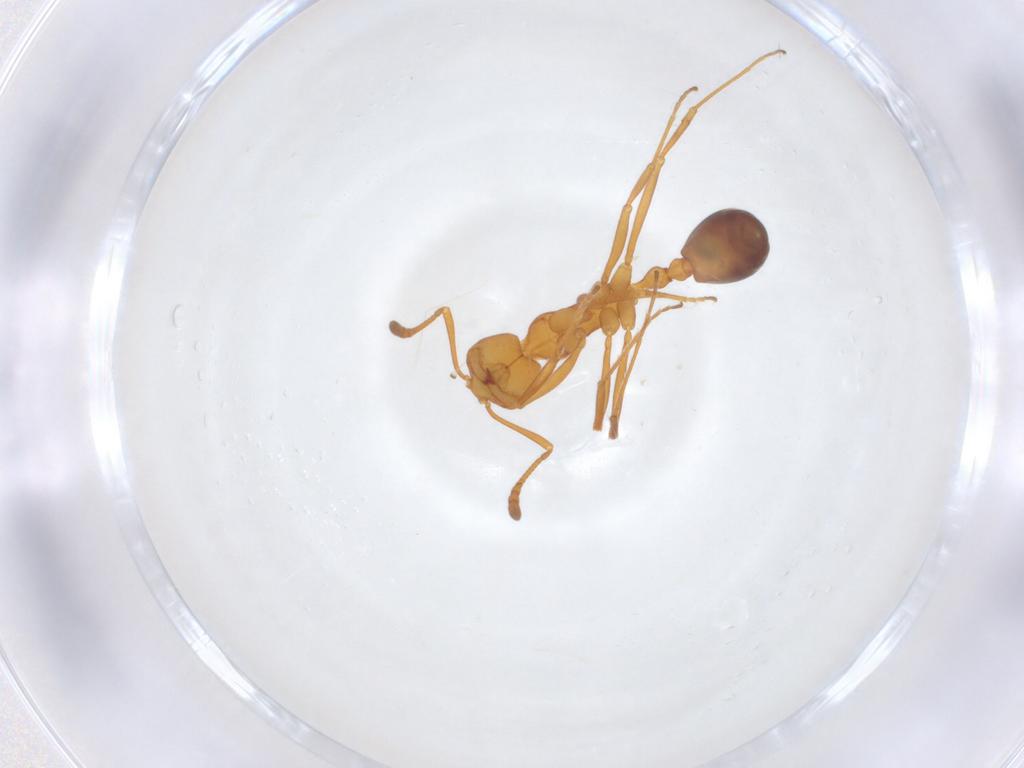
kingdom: Animalia
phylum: Arthropoda
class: Insecta
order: Hymenoptera
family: Formicidae
